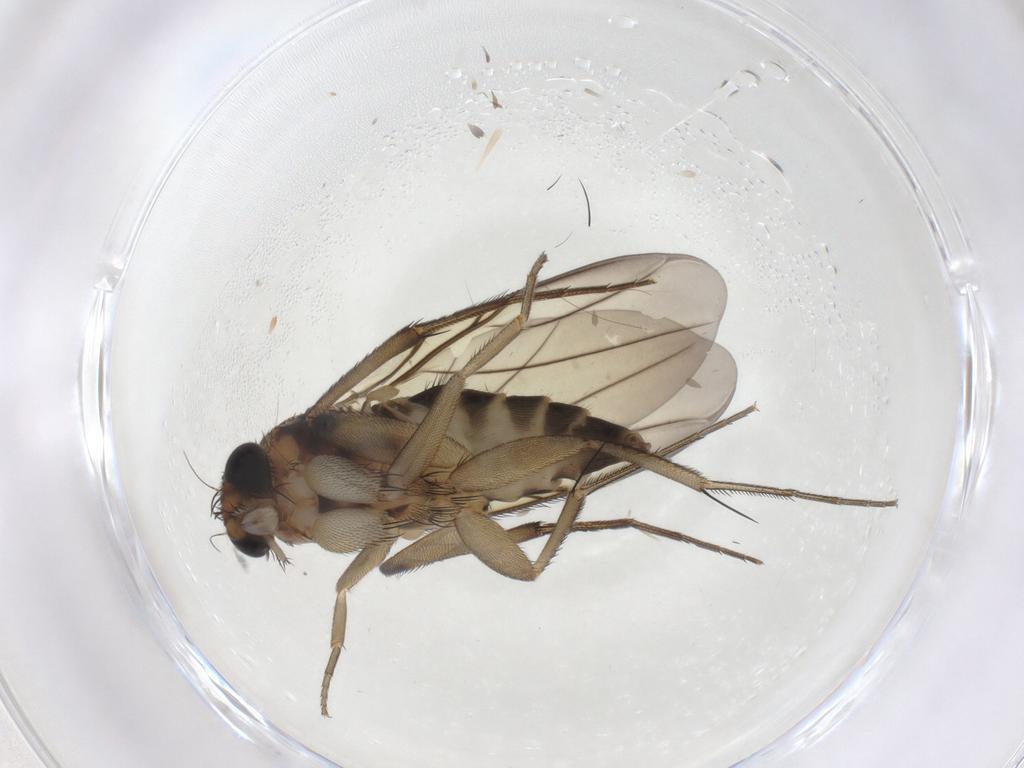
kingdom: Animalia
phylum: Arthropoda
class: Insecta
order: Diptera
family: Phoridae
